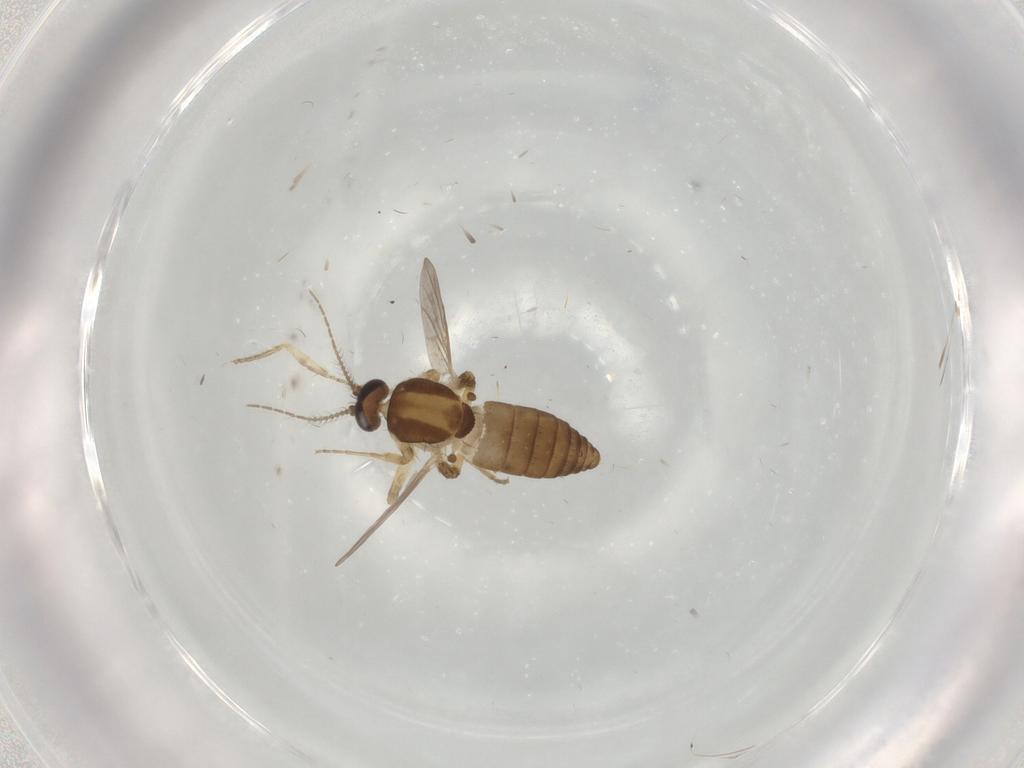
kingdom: Animalia
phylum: Arthropoda
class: Insecta
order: Diptera
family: Ceratopogonidae
